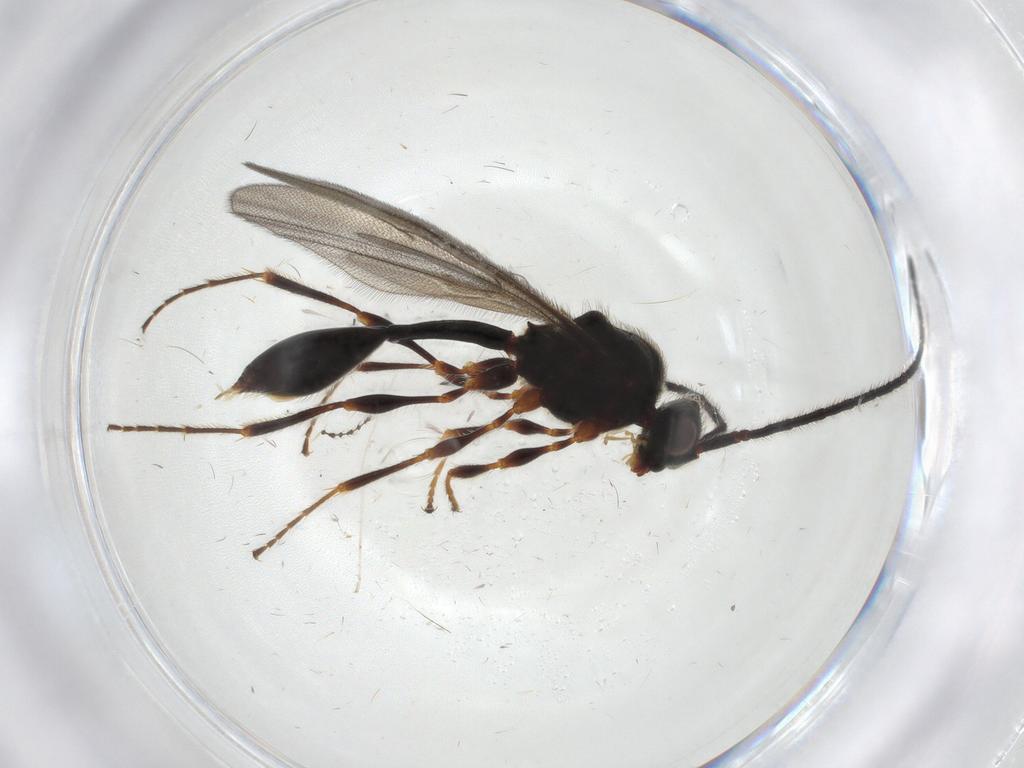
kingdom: Animalia
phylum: Arthropoda
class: Insecta
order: Hymenoptera
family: Diapriidae
